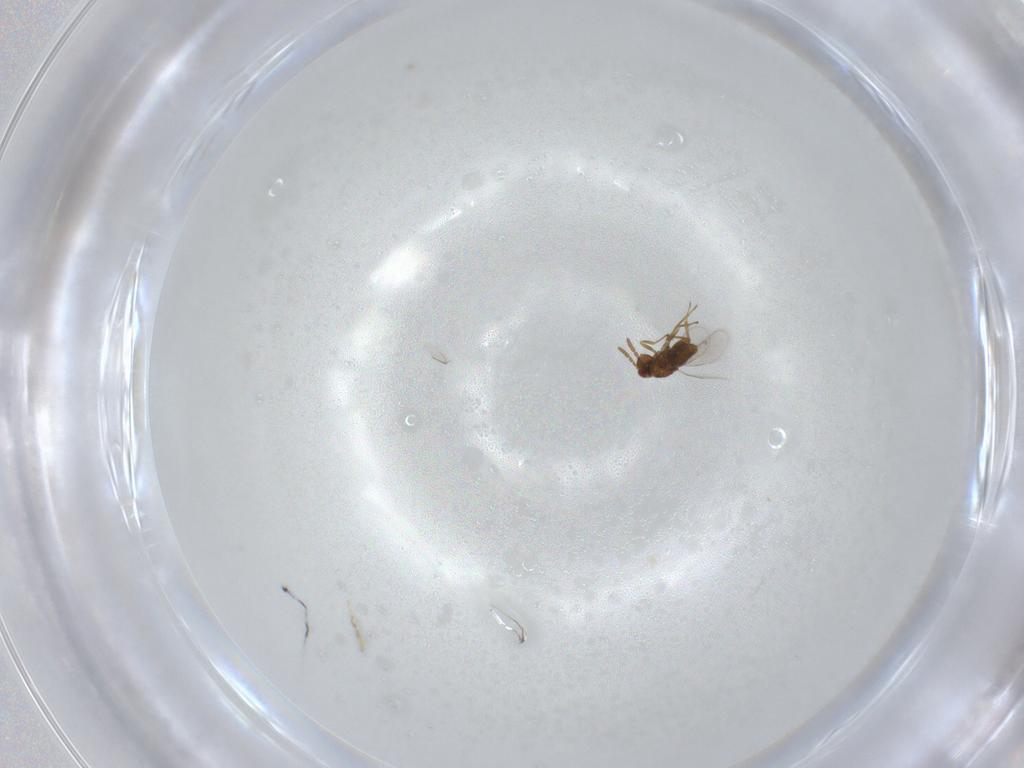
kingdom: Animalia
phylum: Arthropoda
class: Insecta
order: Hymenoptera
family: Aphelinidae
